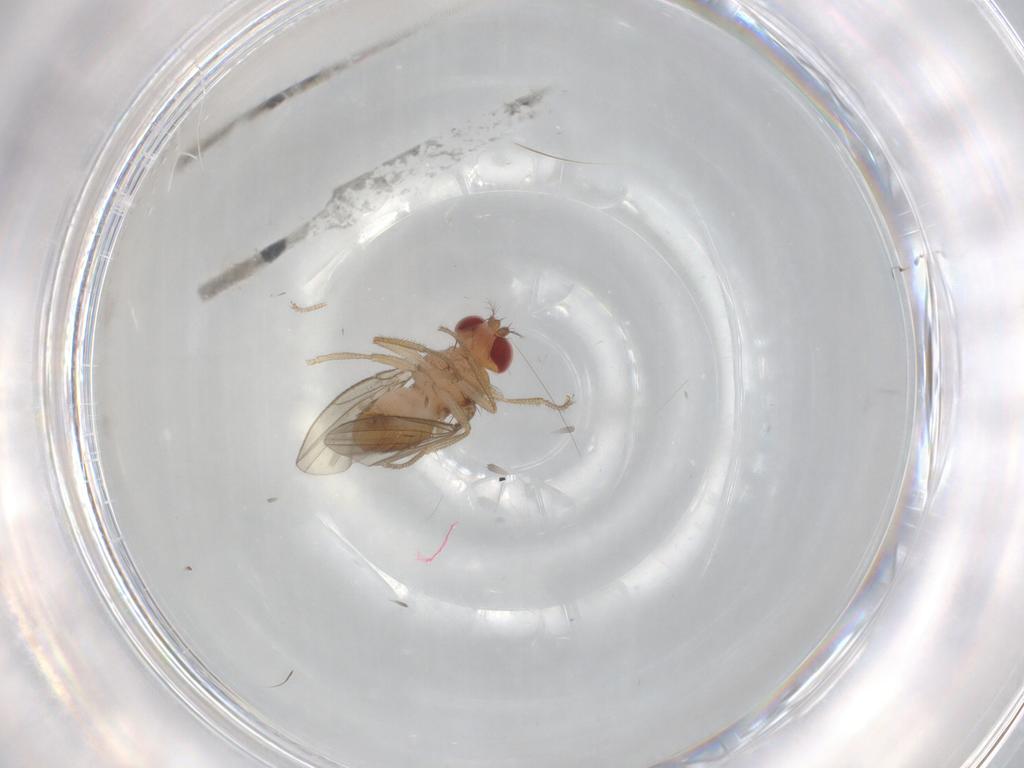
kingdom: Animalia
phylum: Arthropoda
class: Insecta
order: Diptera
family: Drosophilidae
